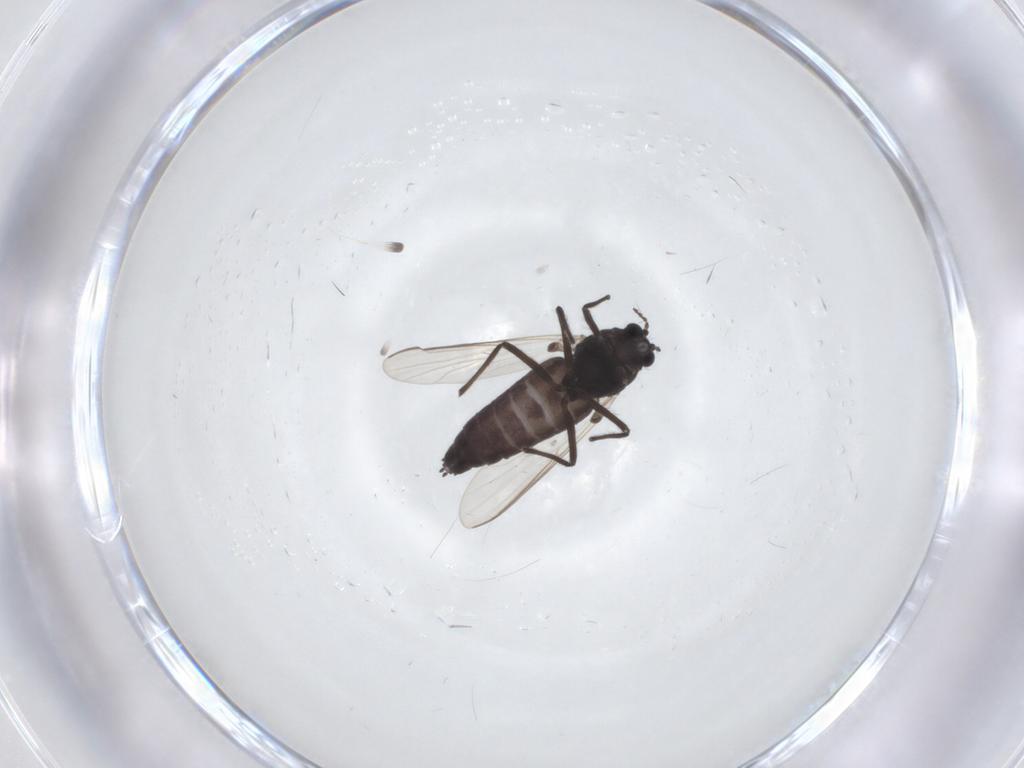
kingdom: Animalia
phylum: Arthropoda
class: Insecta
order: Diptera
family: Chironomidae
